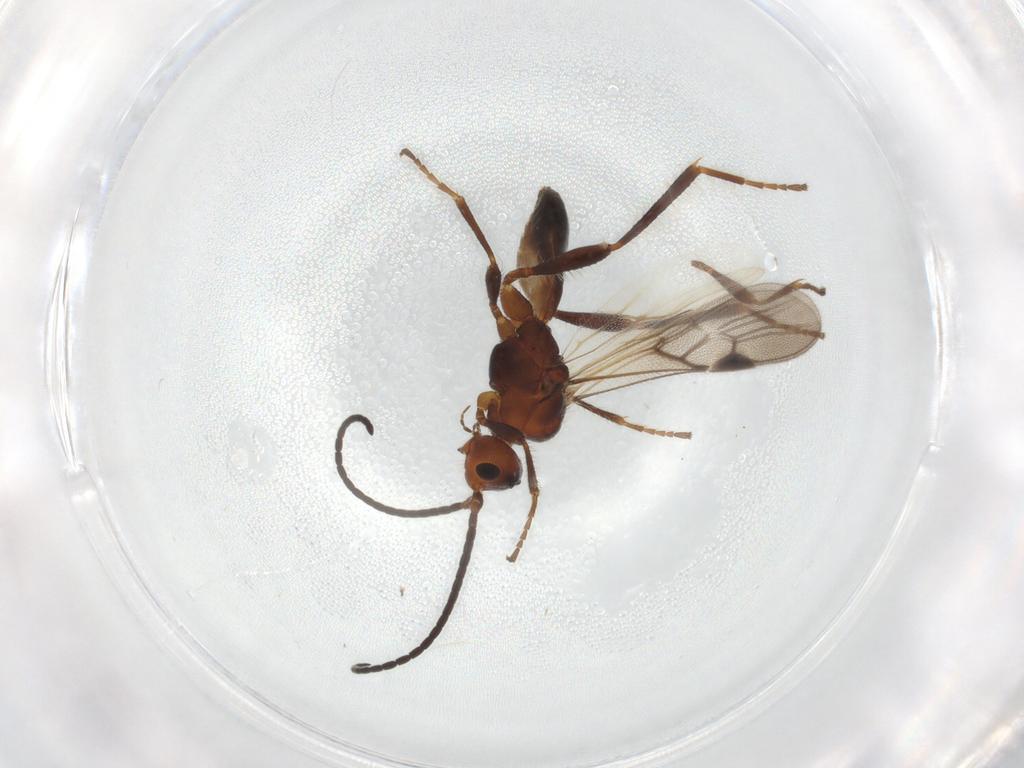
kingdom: Animalia
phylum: Arthropoda
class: Insecta
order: Hymenoptera
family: Braconidae
